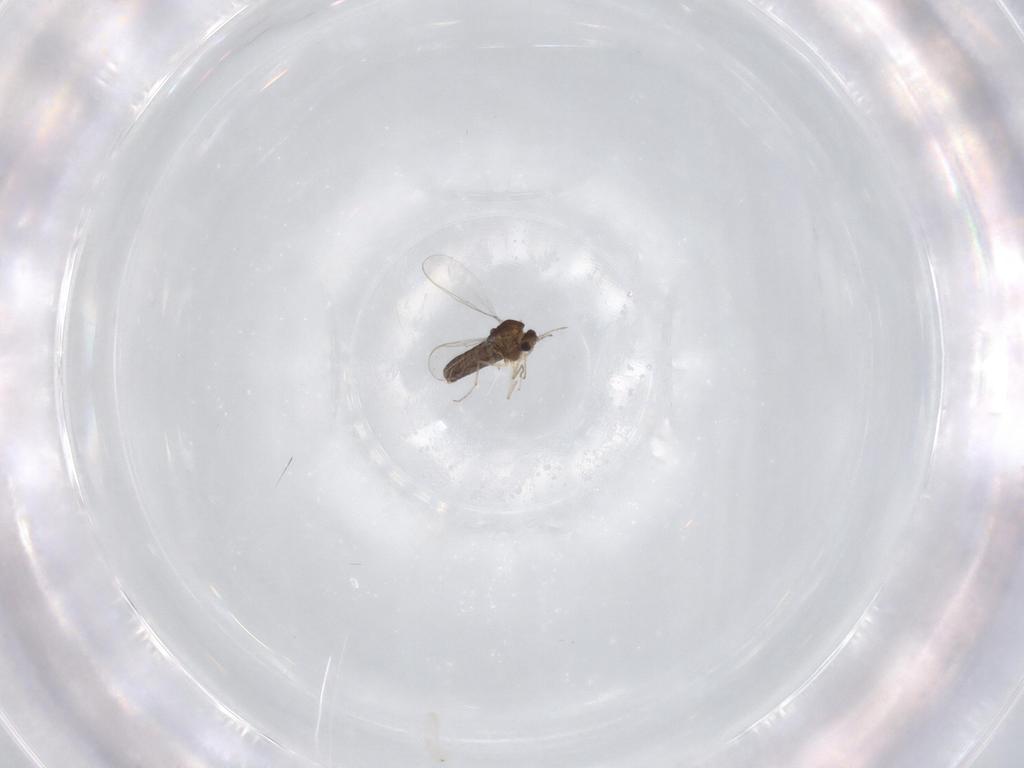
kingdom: Animalia
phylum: Arthropoda
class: Insecta
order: Diptera
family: Chironomidae
